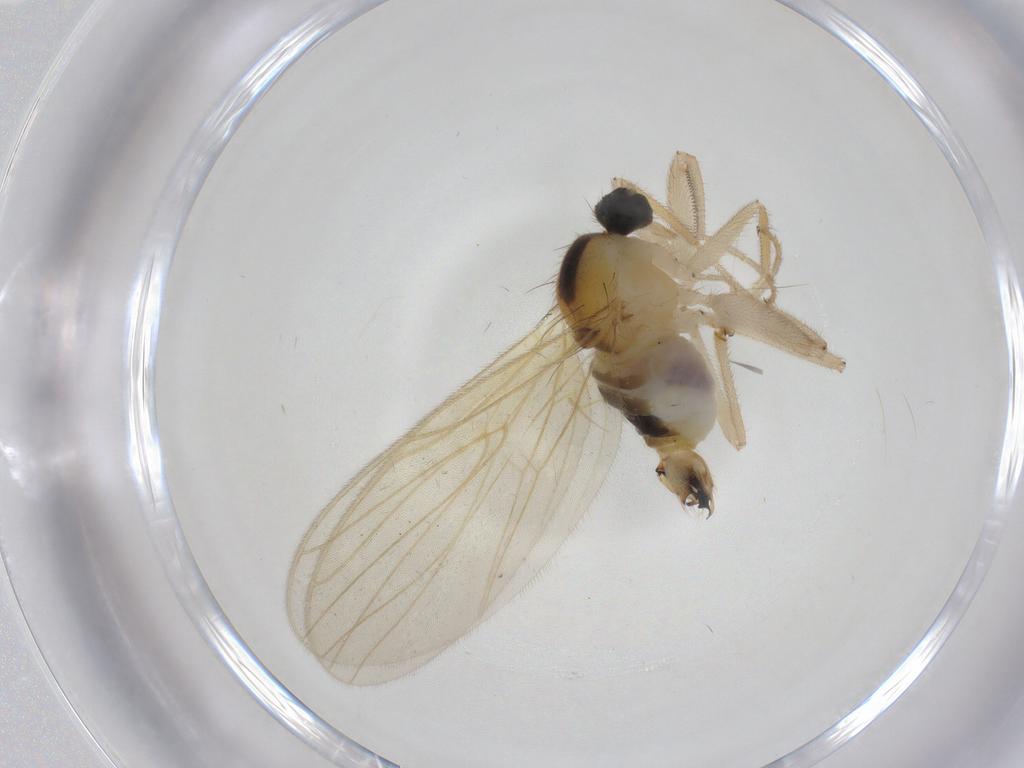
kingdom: Animalia
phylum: Arthropoda
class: Insecta
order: Diptera
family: Hybotidae
